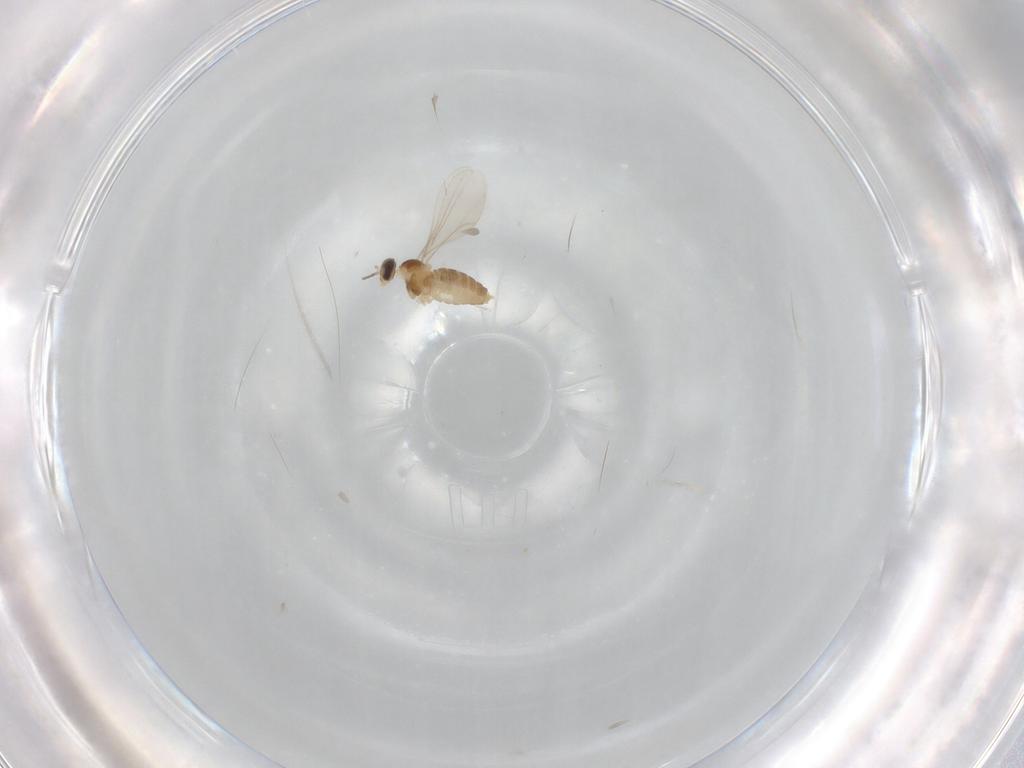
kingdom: Animalia
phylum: Arthropoda
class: Insecta
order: Diptera
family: Cecidomyiidae
